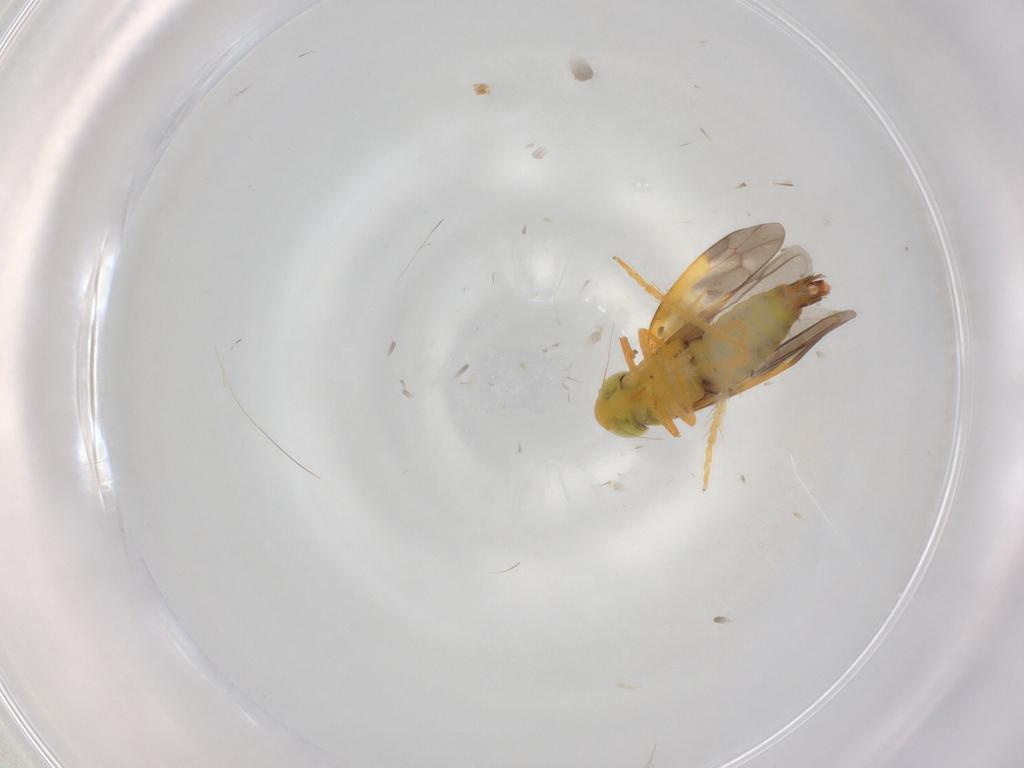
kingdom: Animalia
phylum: Arthropoda
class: Insecta
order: Hemiptera
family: Cicadellidae
